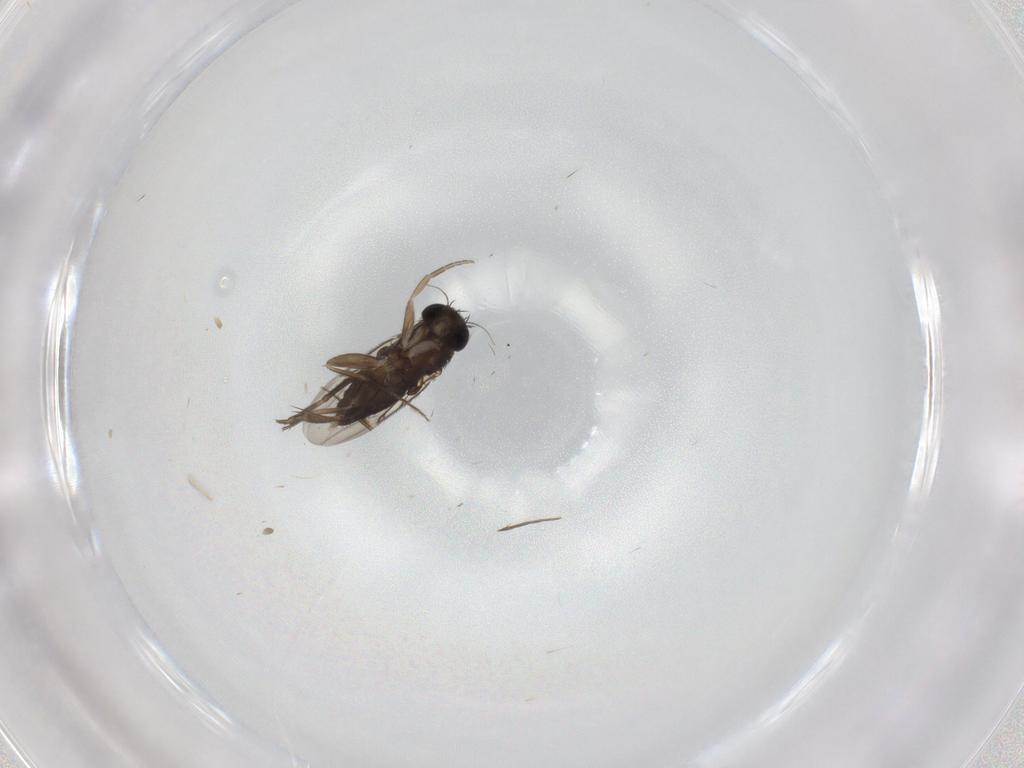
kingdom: Animalia
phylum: Arthropoda
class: Insecta
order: Diptera
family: Phoridae
